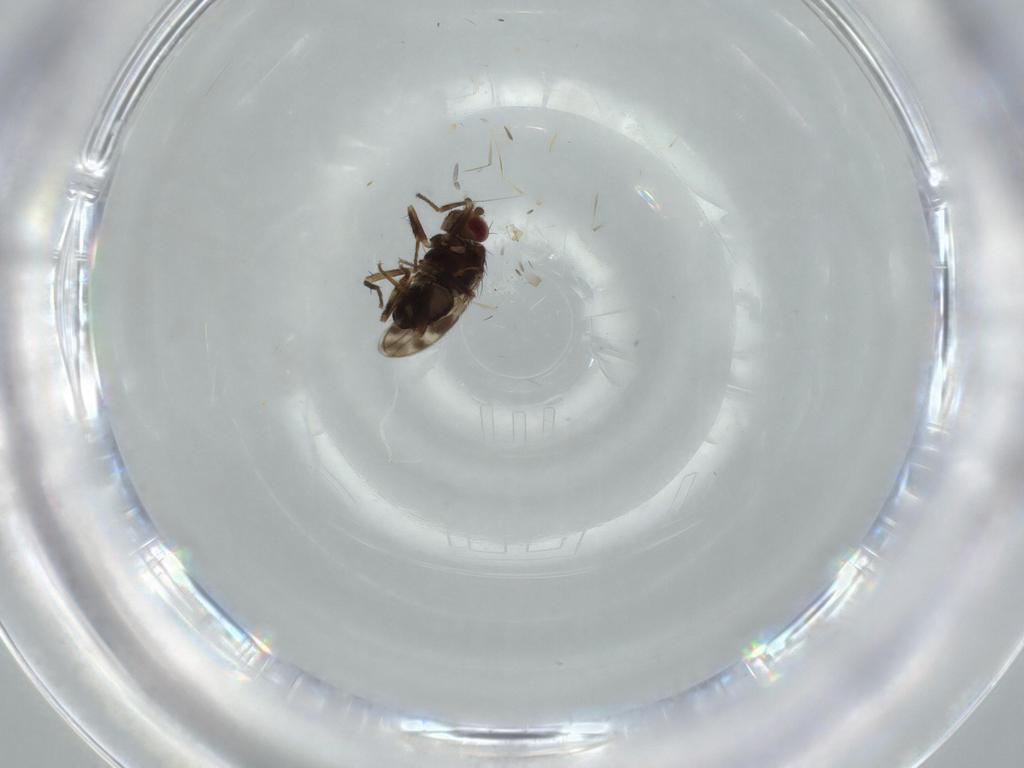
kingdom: Animalia
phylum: Arthropoda
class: Insecta
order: Diptera
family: Sphaeroceridae
